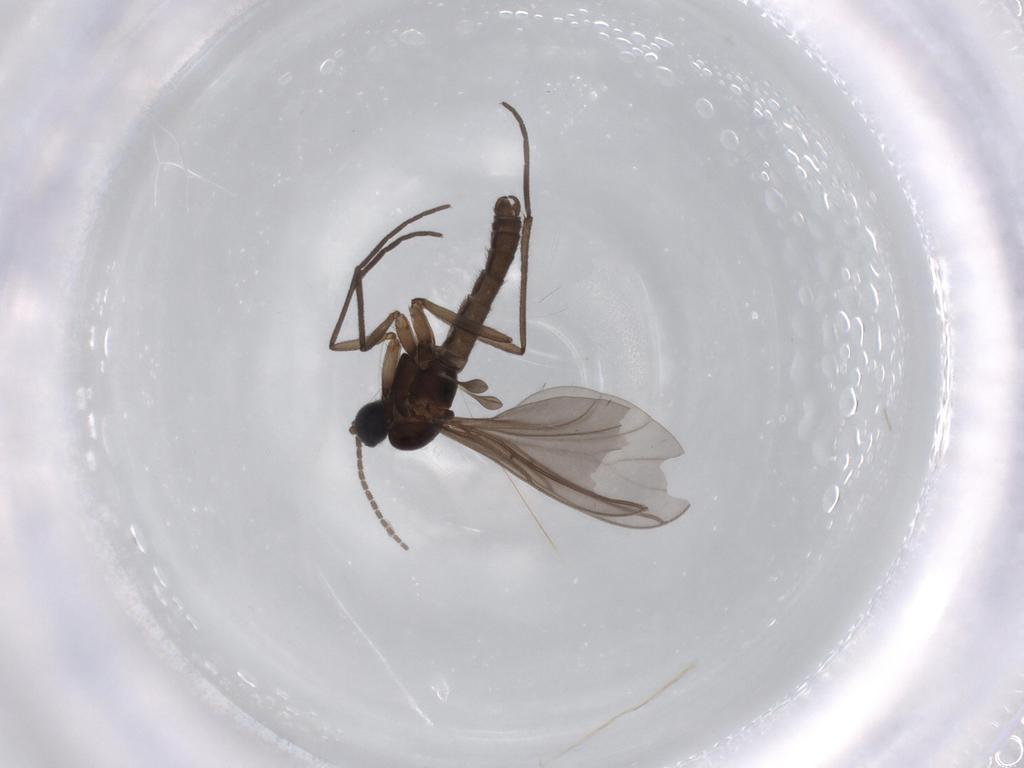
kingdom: Animalia
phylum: Arthropoda
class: Insecta
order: Diptera
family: Sciaridae
